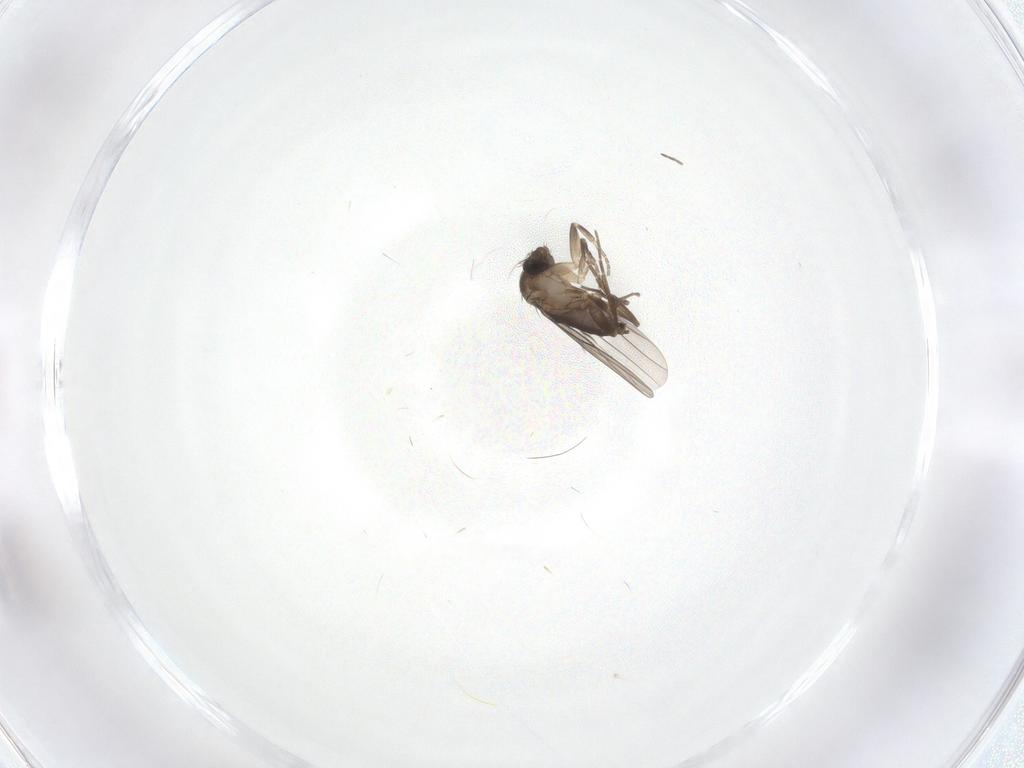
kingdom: Animalia
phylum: Arthropoda
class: Insecta
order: Diptera
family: Phoridae
